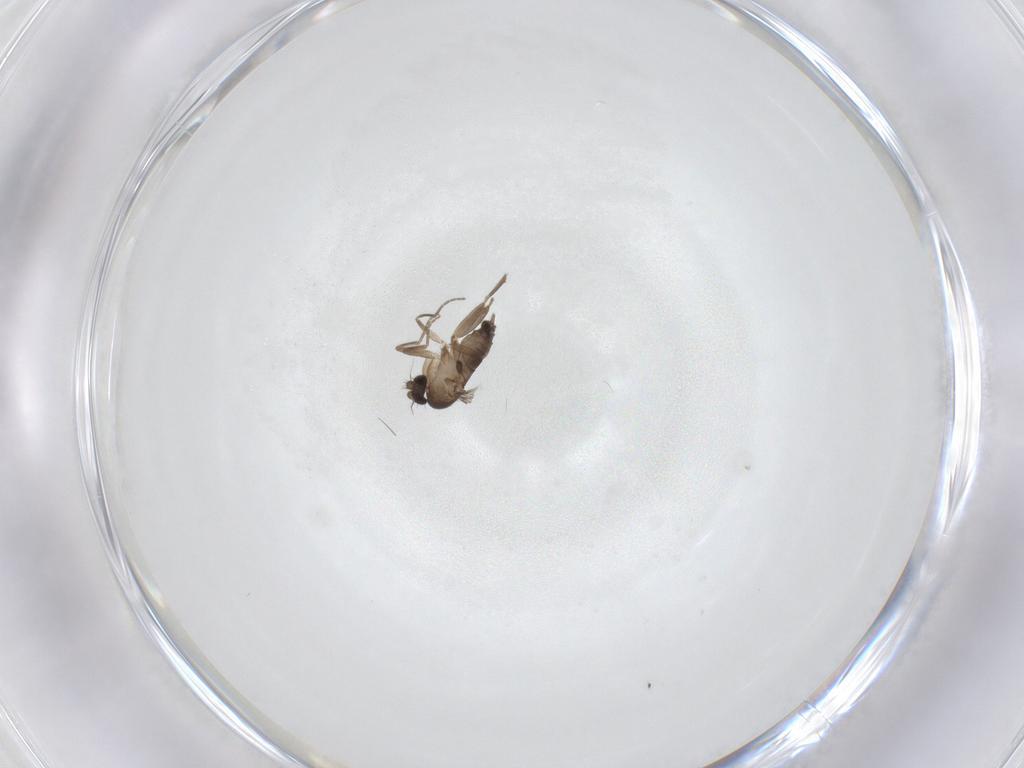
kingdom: Animalia
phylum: Arthropoda
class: Insecta
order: Diptera
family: Phoridae
